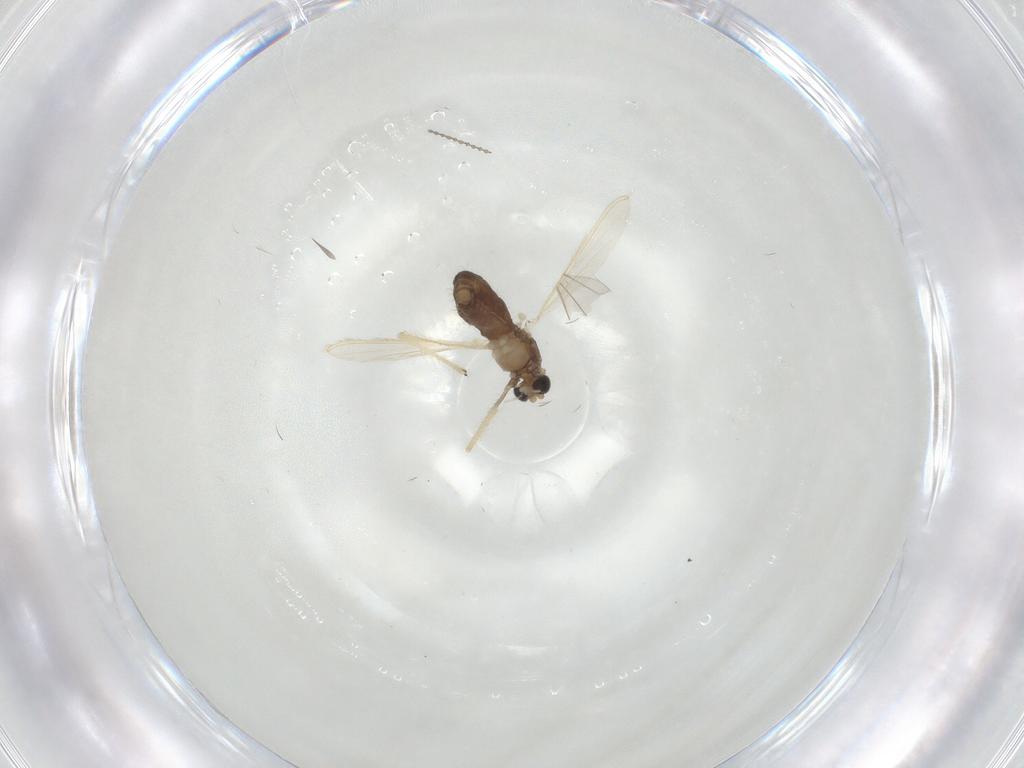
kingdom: Animalia
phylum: Arthropoda
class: Insecta
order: Diptera
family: Chironomidae
